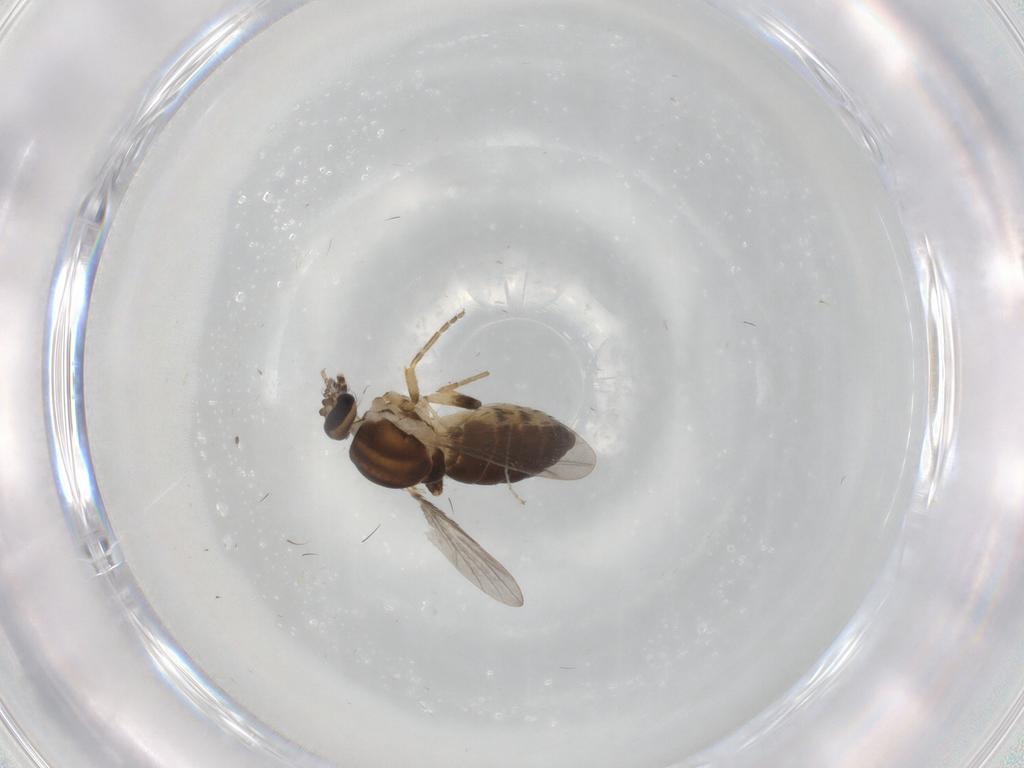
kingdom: Animalia
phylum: Arthropoda
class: Insecta
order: Diptera
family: Ceratopogonidae
